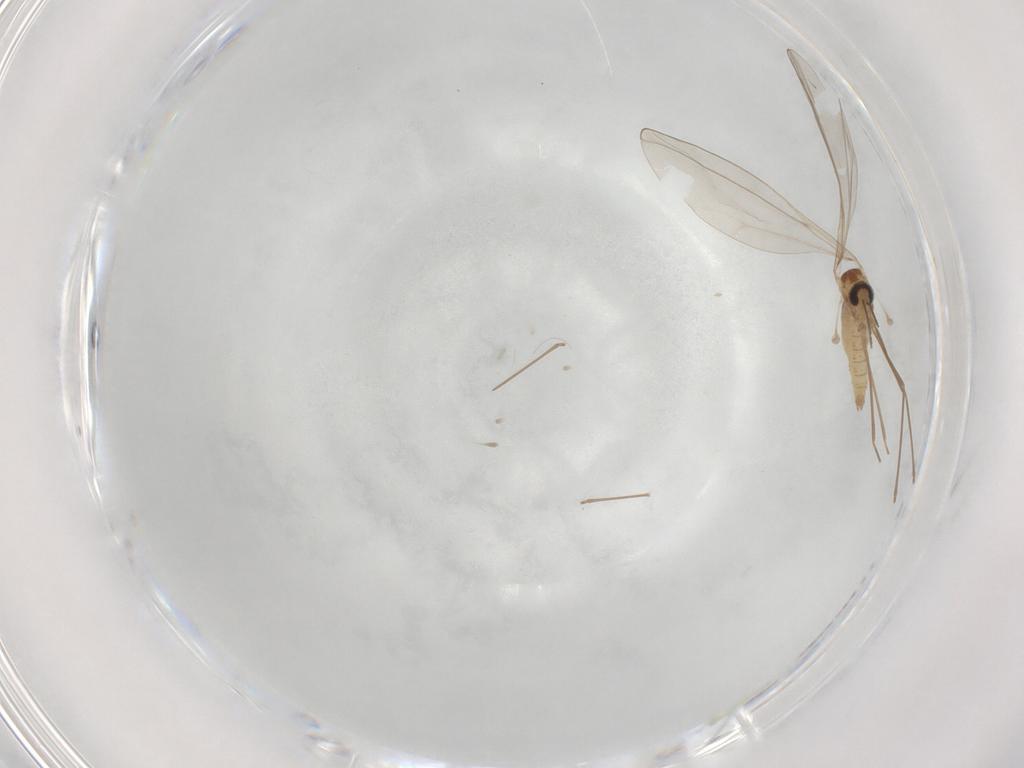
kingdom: Animalia
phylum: Arthropoda
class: Insecta
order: Diptera
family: Cecidomyiidae
